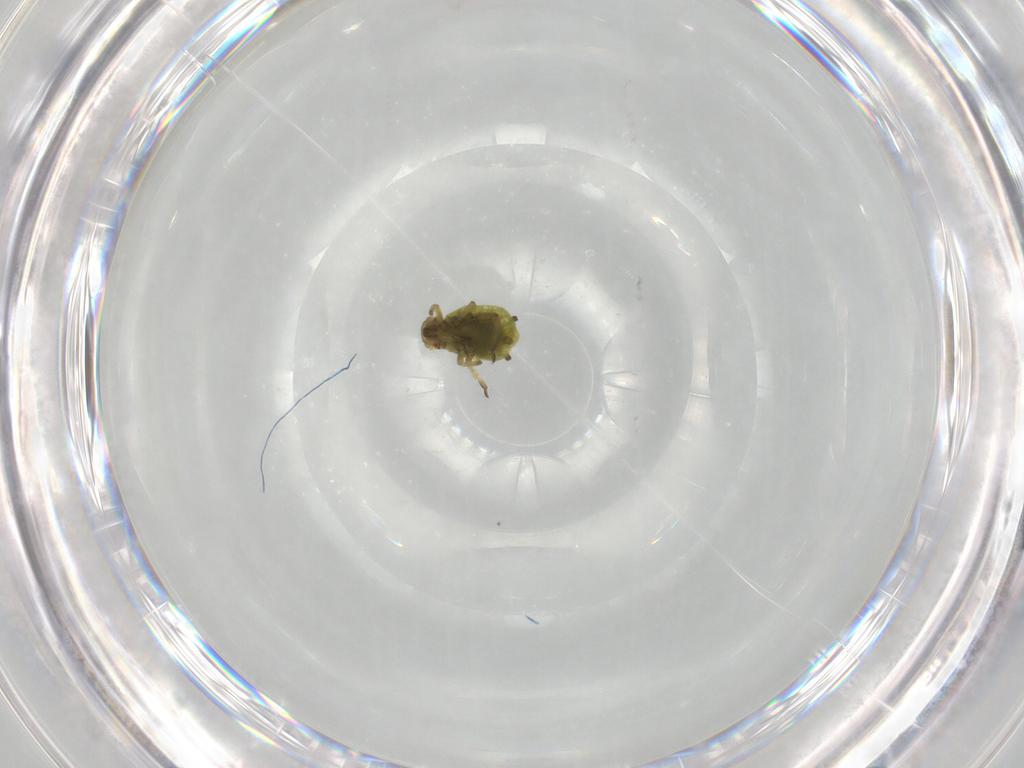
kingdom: Animalia
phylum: Arthropoda
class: Insecta
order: Hemiptera
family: Aphididae
